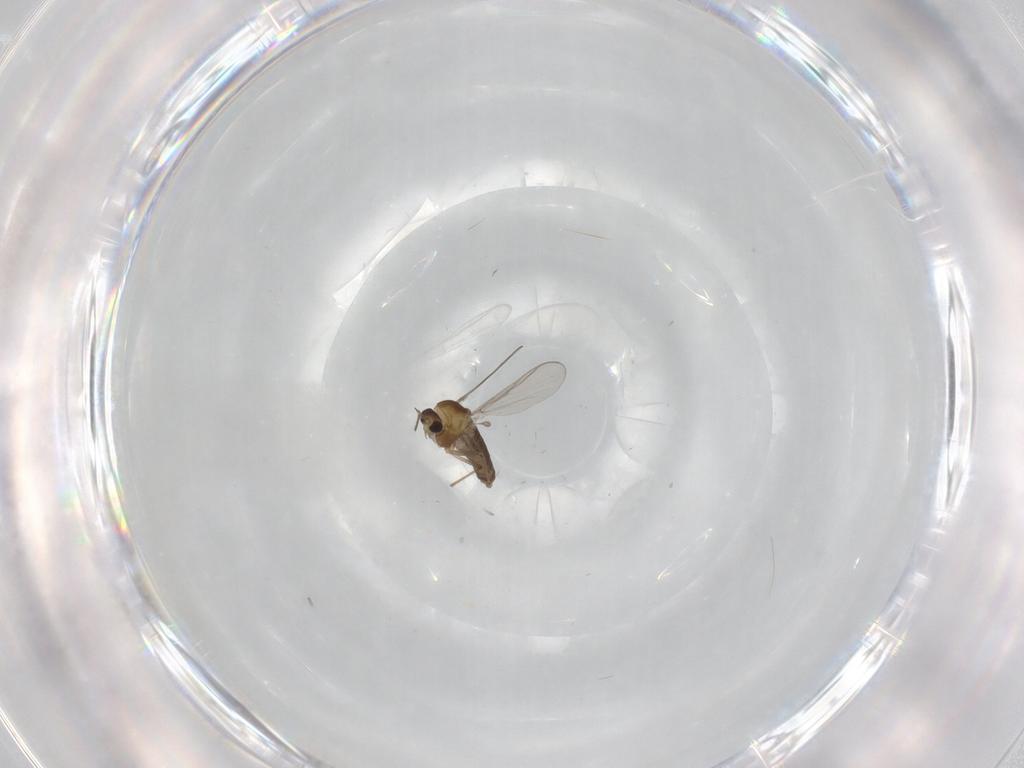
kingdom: Animalia
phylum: Arthropoda
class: Insecta
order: Diptera
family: Chironomidae
